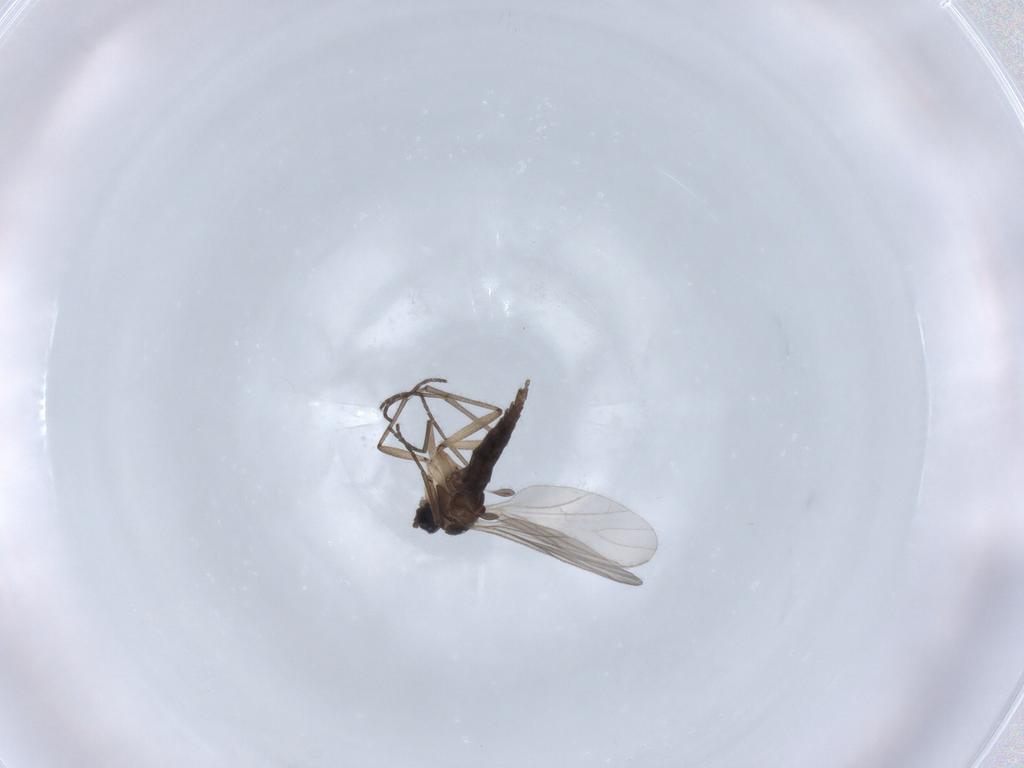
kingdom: Animalia
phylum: Arthropoda
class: Insecta
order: Diptera
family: Sciaridae
